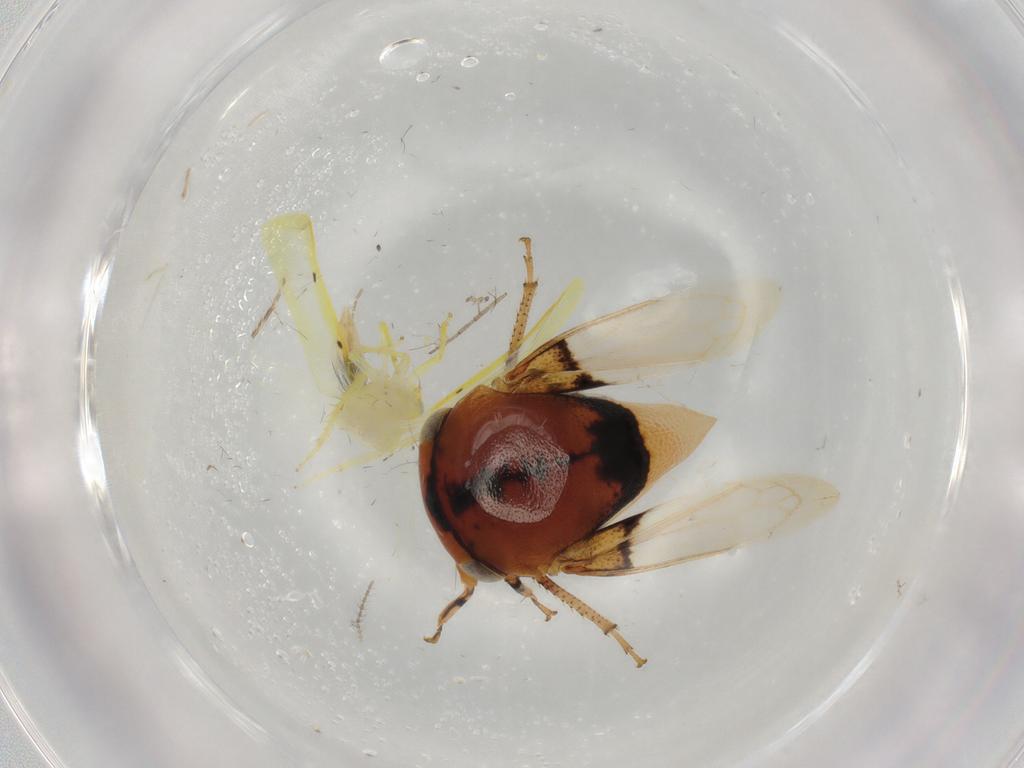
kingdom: Animalia
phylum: Arthropoda
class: Insecta
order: Hemiptera
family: Membracidae
